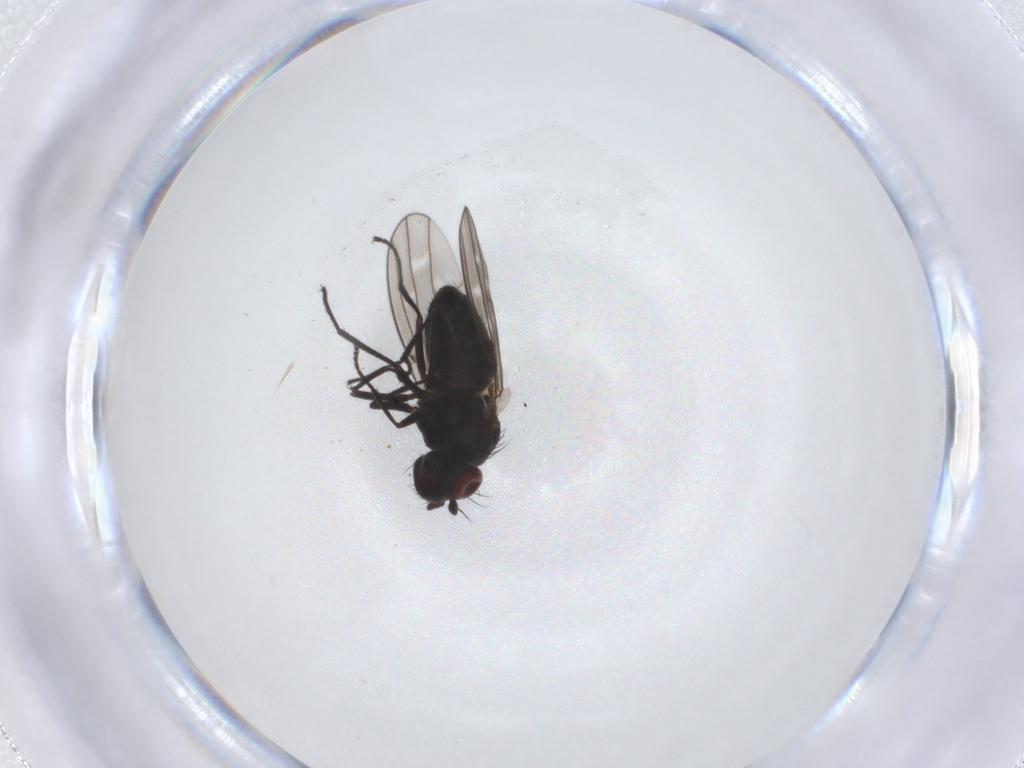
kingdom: Animalia
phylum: Arthropoda
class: Insecta
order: Diptera
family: Ephydridae
